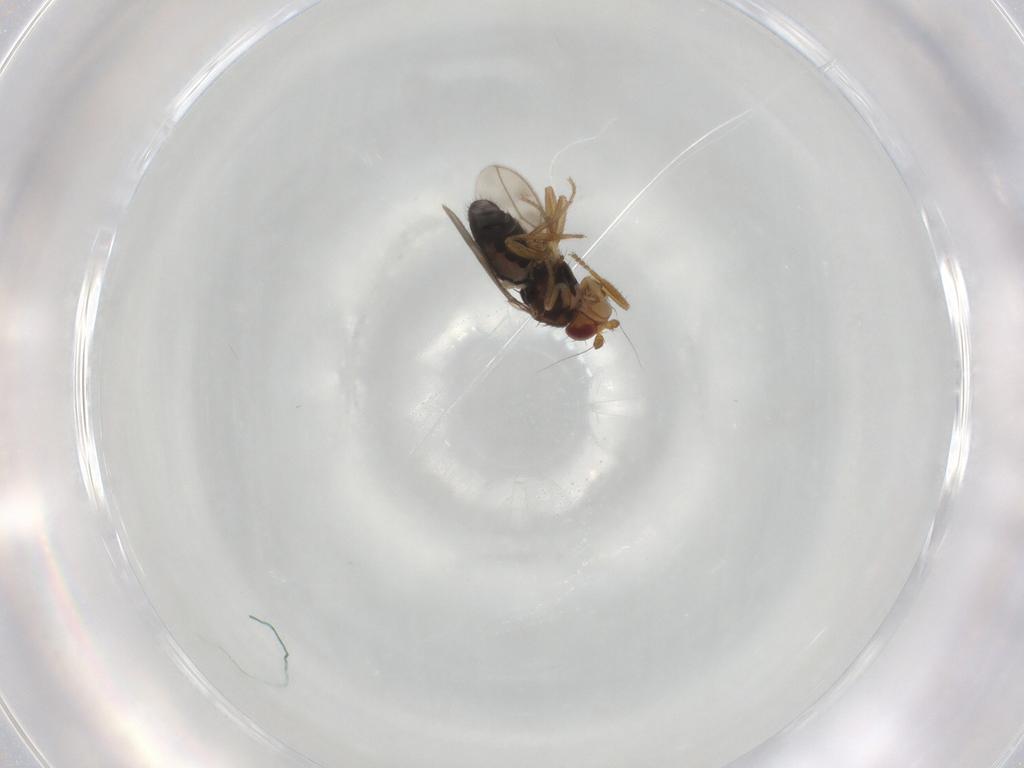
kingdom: Animalia
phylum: Arthropoda
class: Insecta
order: Diptera
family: Sphaeroceridae
